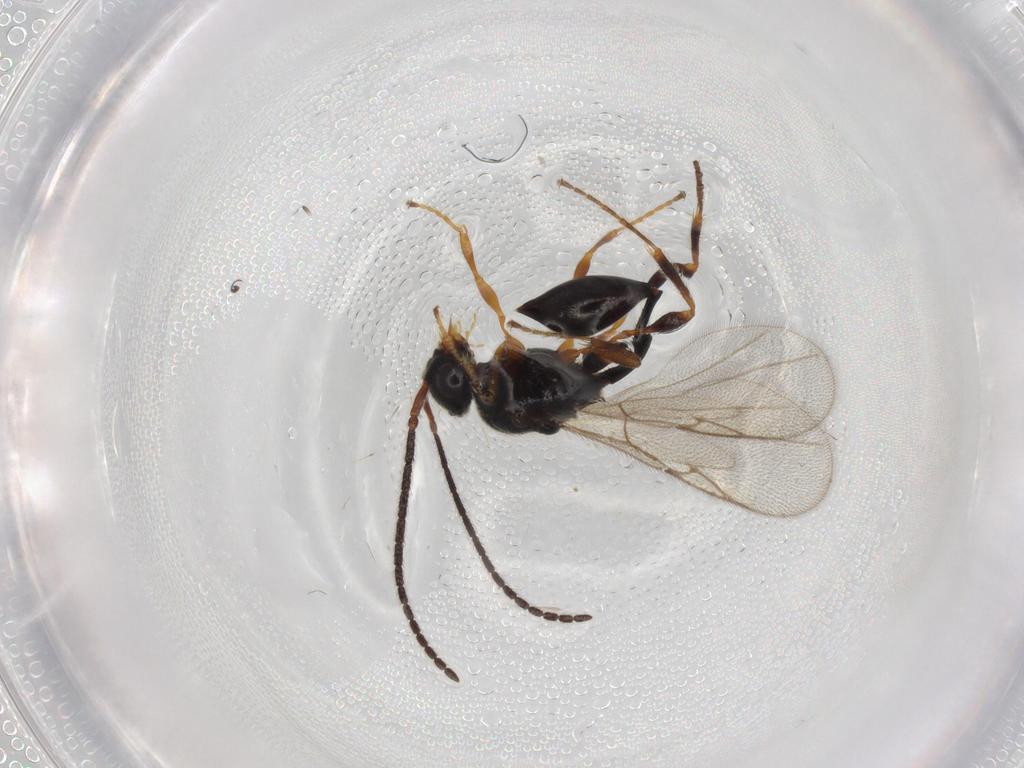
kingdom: Animalia
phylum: Arthropoda
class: Insecta
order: Hymenoptera
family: Diapriidae
